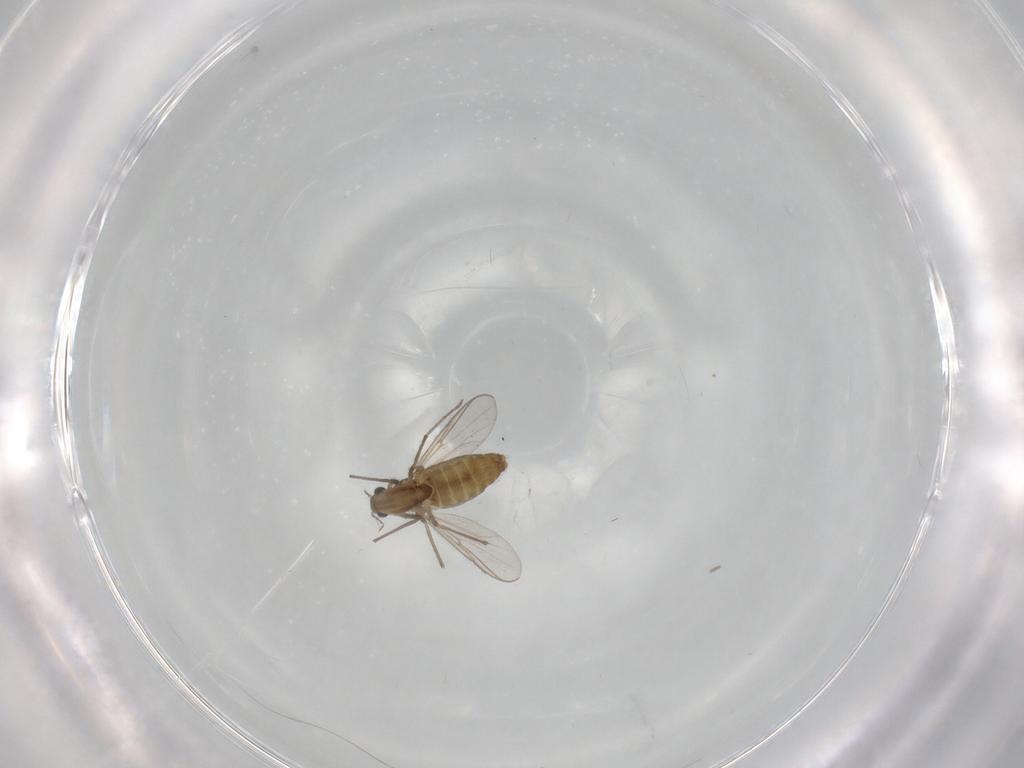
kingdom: Animalia
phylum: Arthropoda
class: Insecta
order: Diptera
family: Chironomidae
